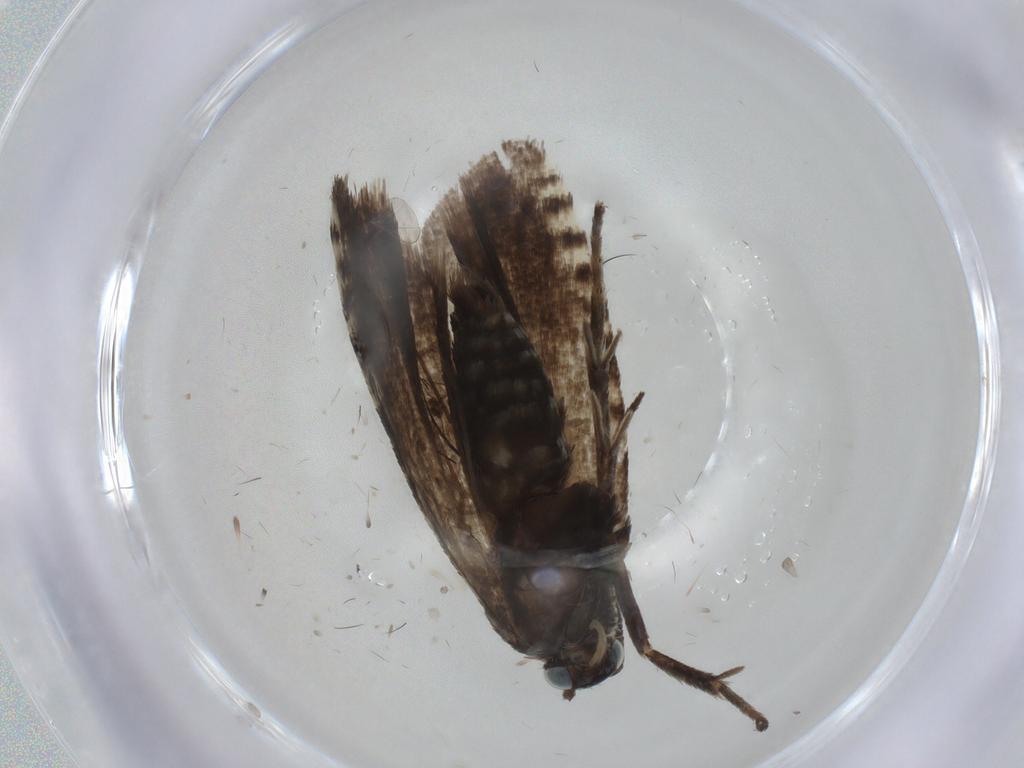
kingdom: Animalia
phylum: Arthropoda
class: Insecta
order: Lepidoptera
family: Tortricidae
